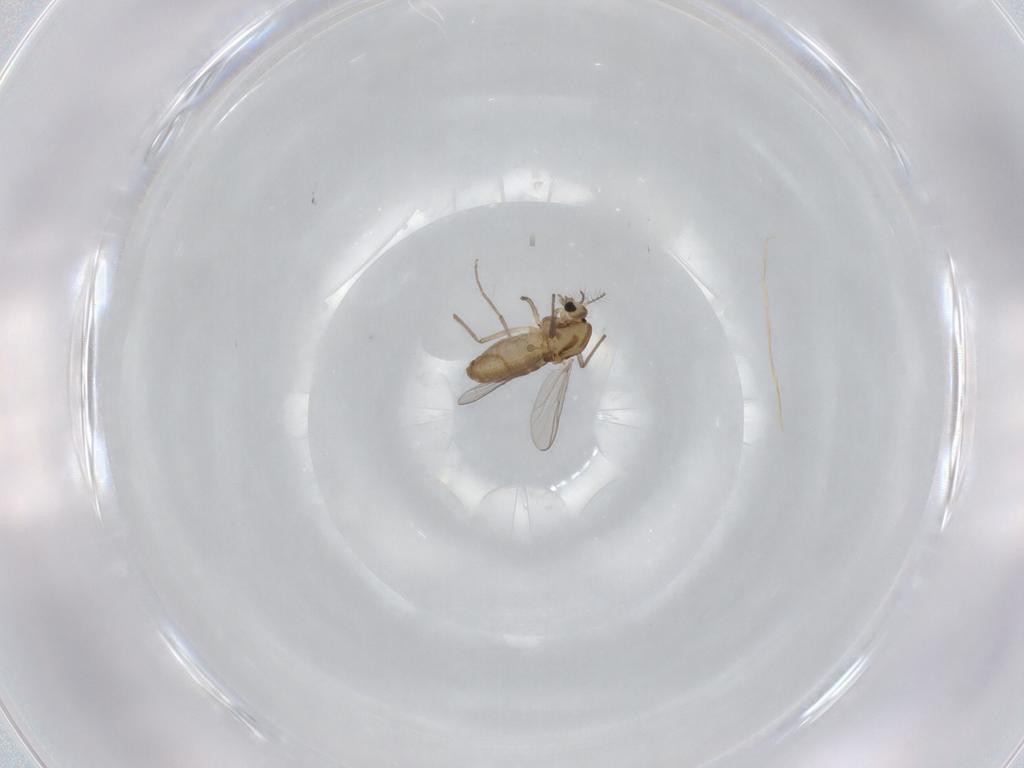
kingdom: Animalia
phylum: Arthropoda
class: Insecta
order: Diptera
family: Chironomidae
